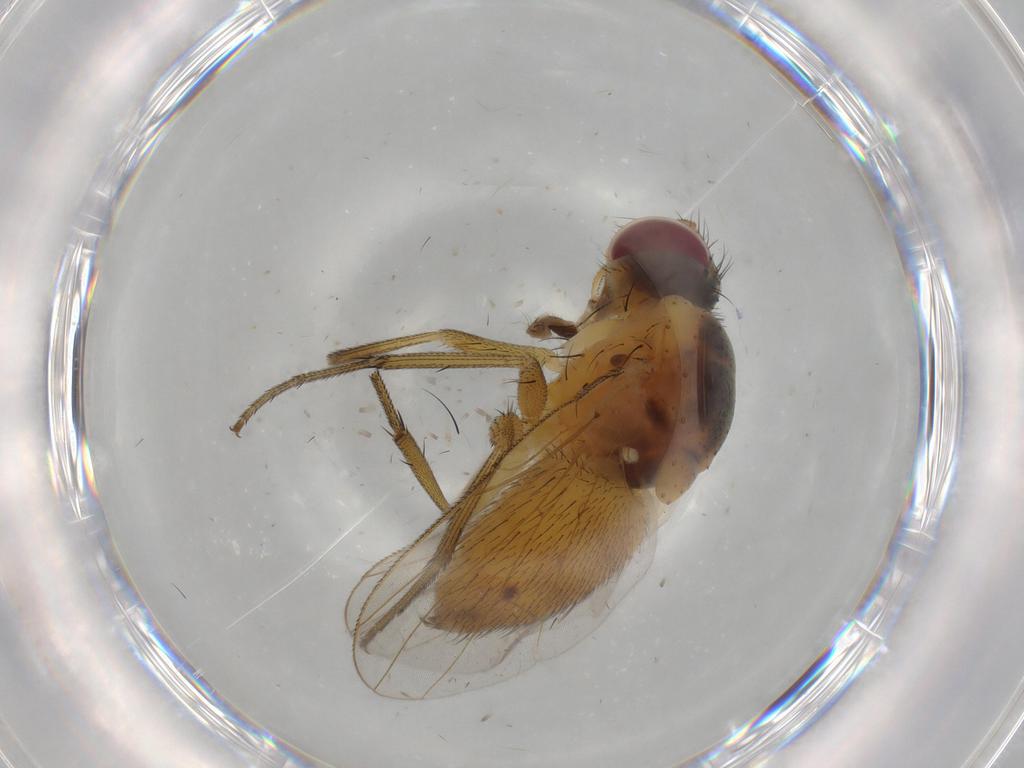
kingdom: Animalia
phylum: Arthropoda
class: Insecta
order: Diptera
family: Muscidae
